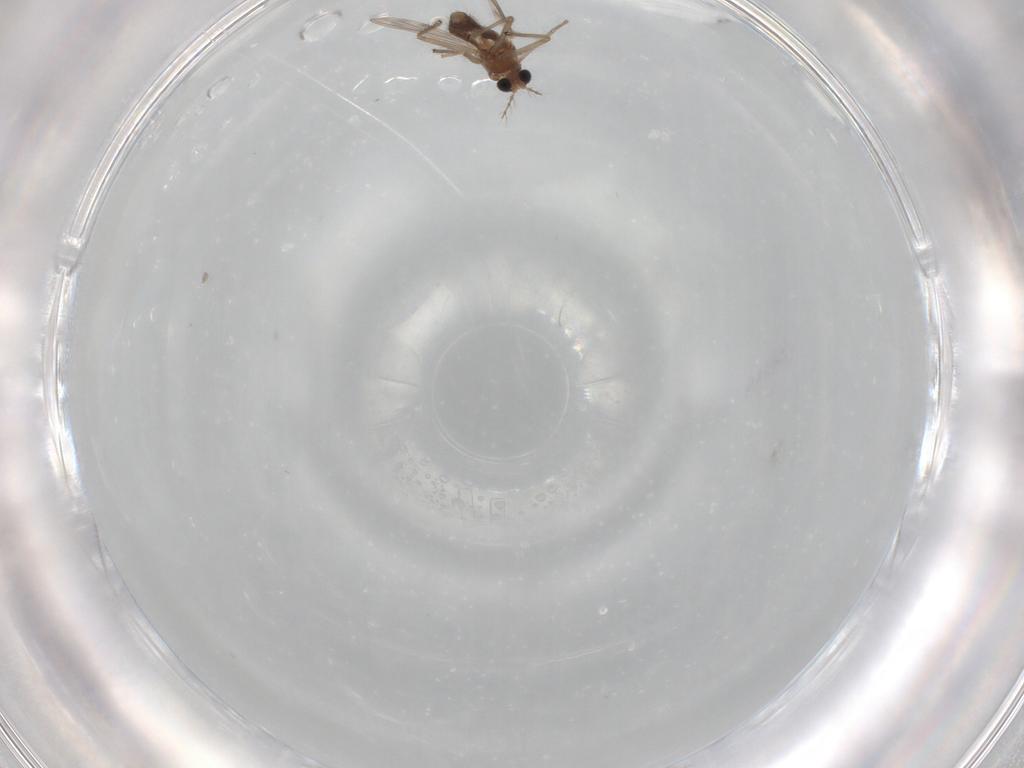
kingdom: Animalia
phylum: Arthropoda
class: Insecta
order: Diptera
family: Chironomidae
